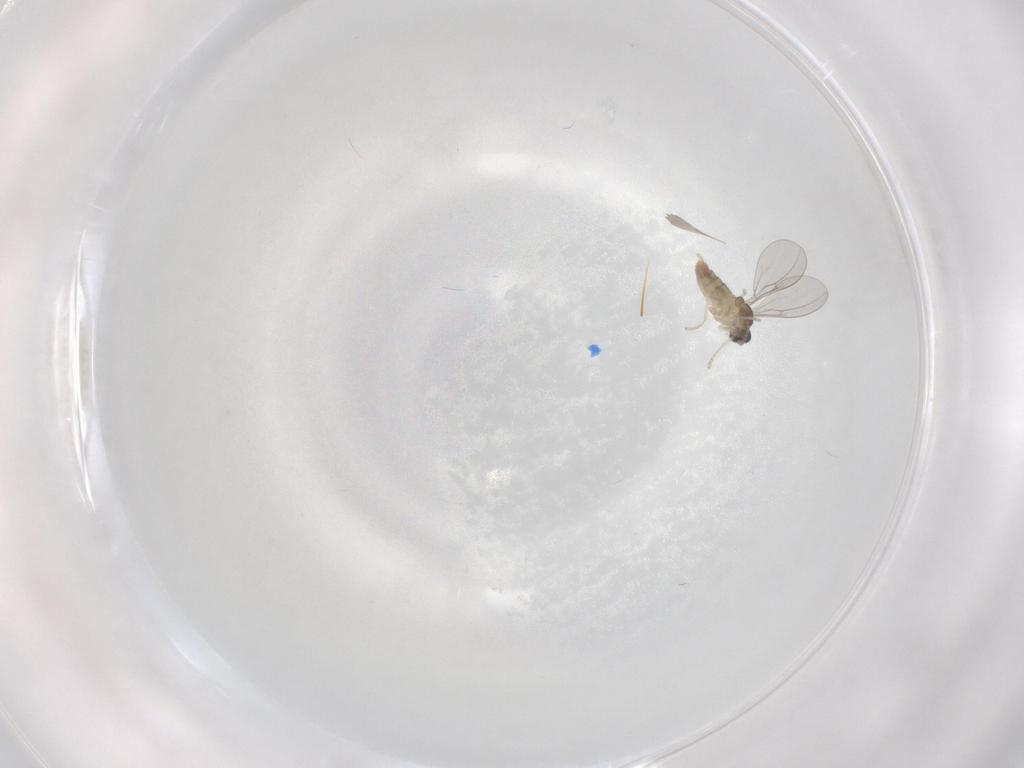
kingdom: Animalia
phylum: Arthropoda
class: Insecta
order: Diptera
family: Cecidomyiidae
